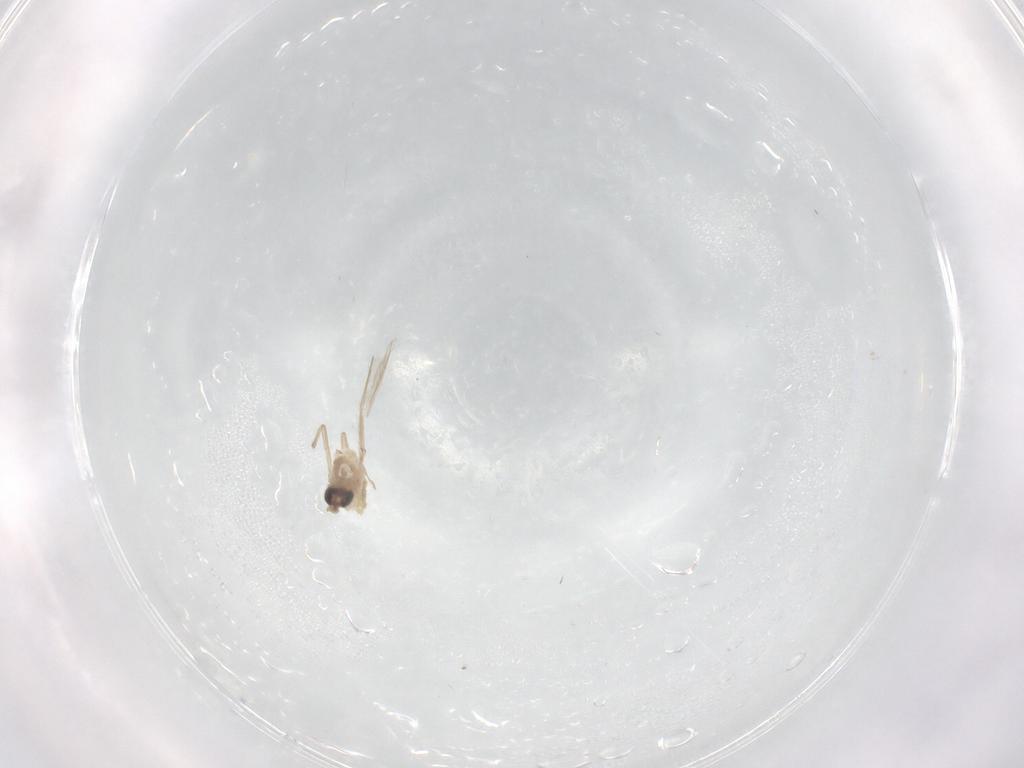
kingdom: Animalia
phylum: Arthropoda
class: Insecta
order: Diptera
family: Chironomidae
